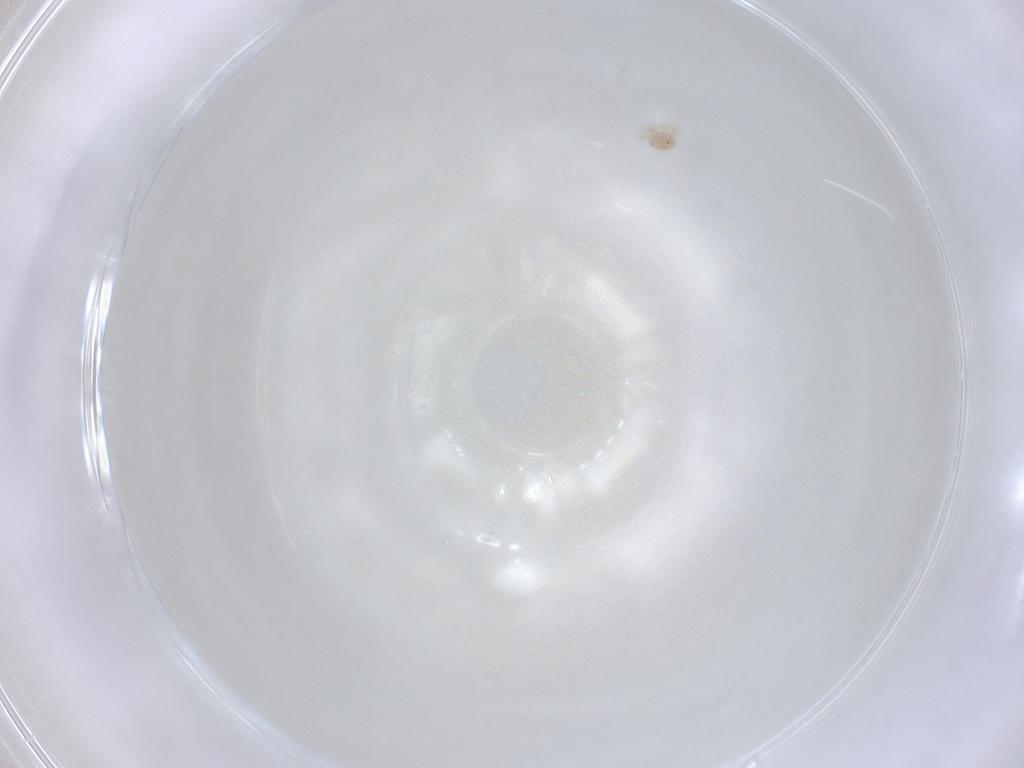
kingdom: Animalia
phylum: Arthropoda
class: Arachnida
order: Trombidiformes
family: Anystidae
